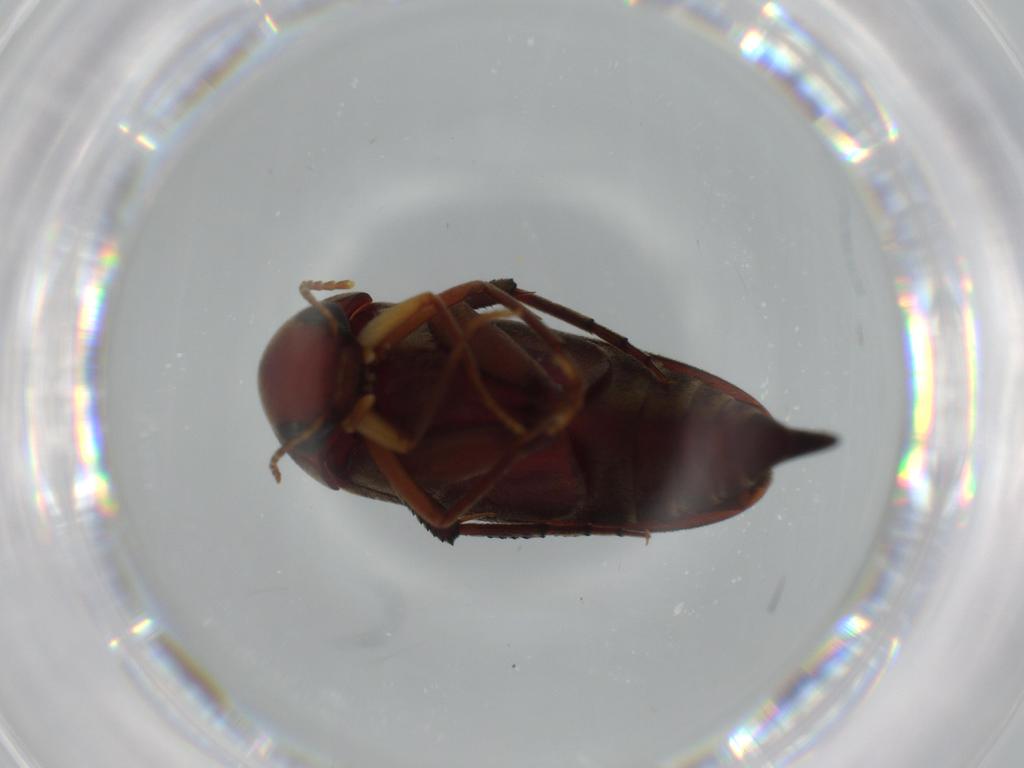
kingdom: Animalia
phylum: Arthropoda
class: Insecta
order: Coleoptera
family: Mordellidae
